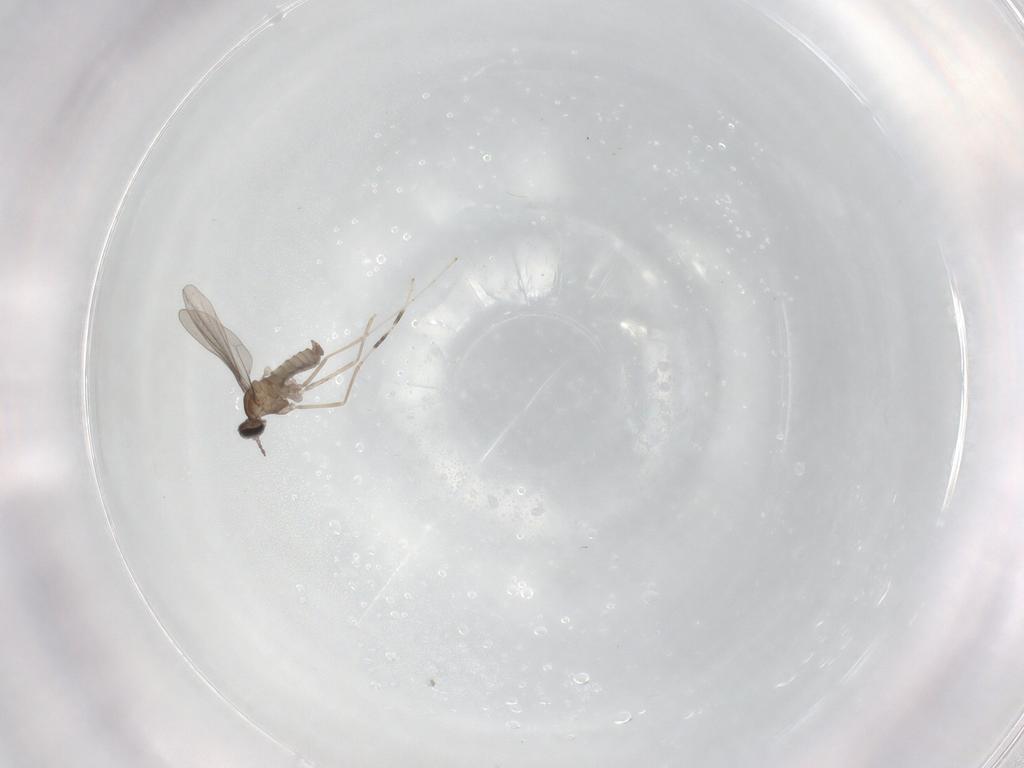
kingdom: Animalia
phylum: Arthropoda
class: Insecta
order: Diptera
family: Cecidomyiidae
